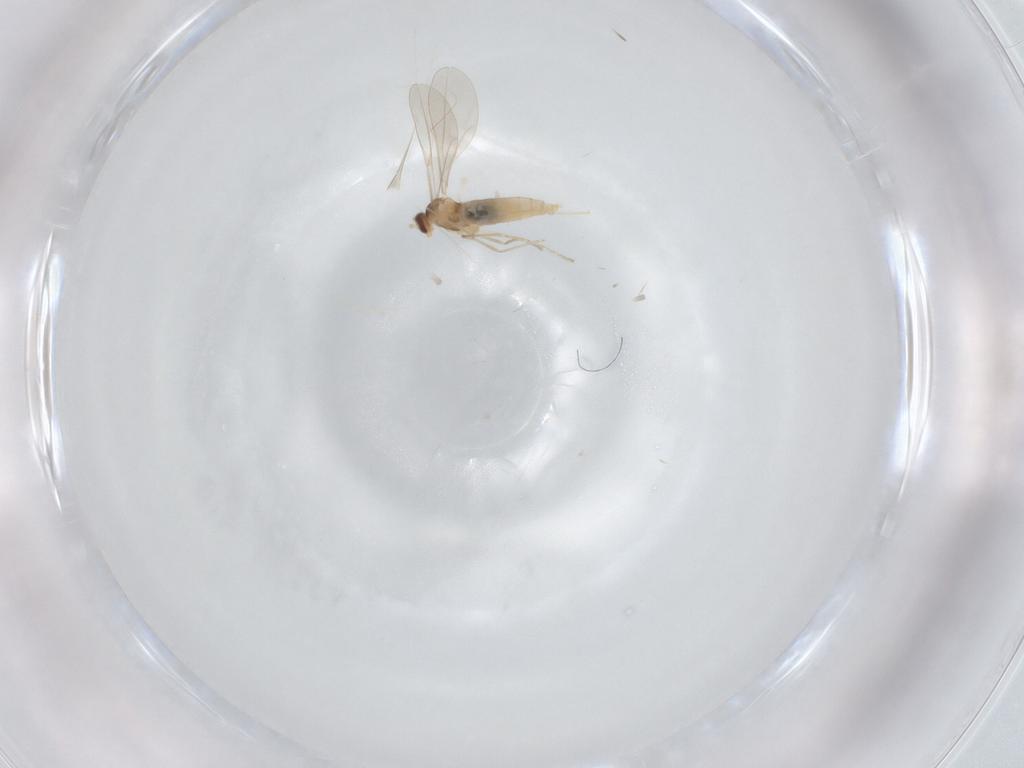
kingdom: Animalia
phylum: Arthropoda
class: Insecta
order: Diptera
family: Cecidomyiidae
